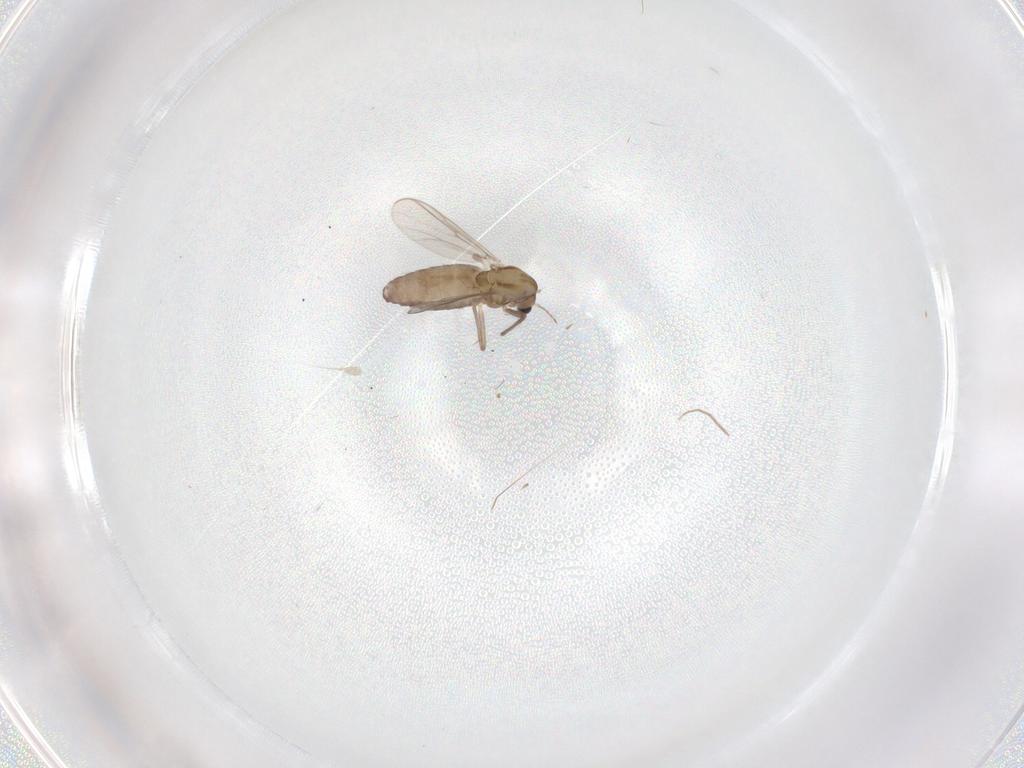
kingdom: Animalia
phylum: Arthropoda
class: Insecta
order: Diptera
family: Chironomidae
